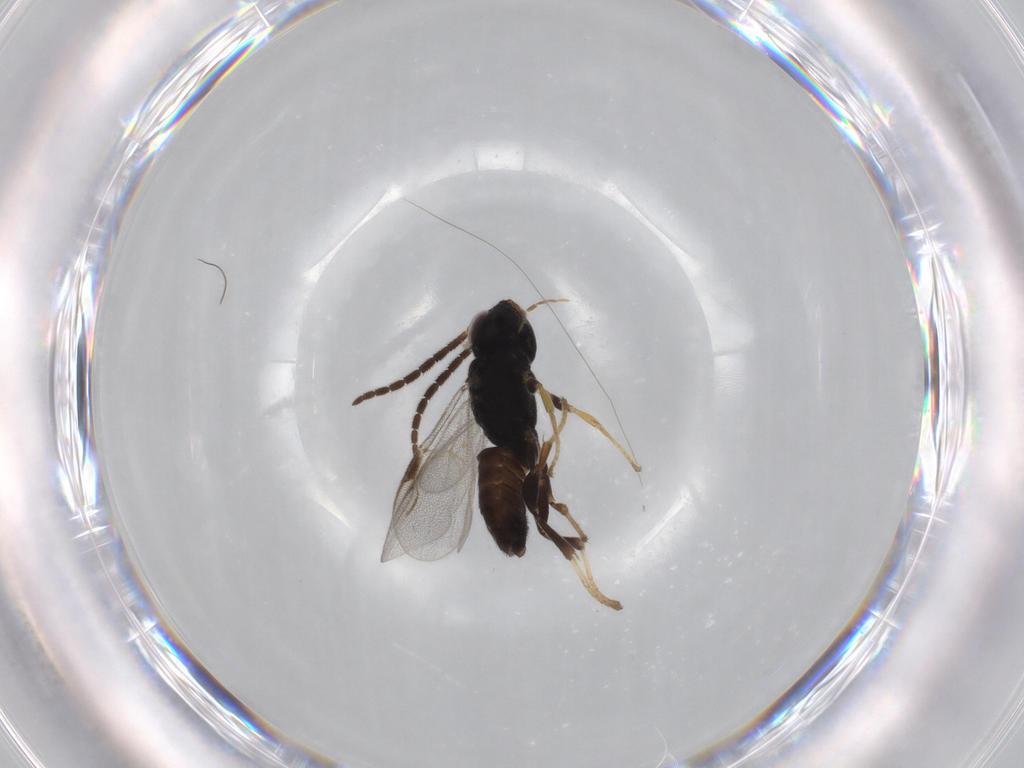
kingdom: Animalia
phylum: Arthropoda
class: Insecta
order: Hymenoptera
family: Dryinidae
